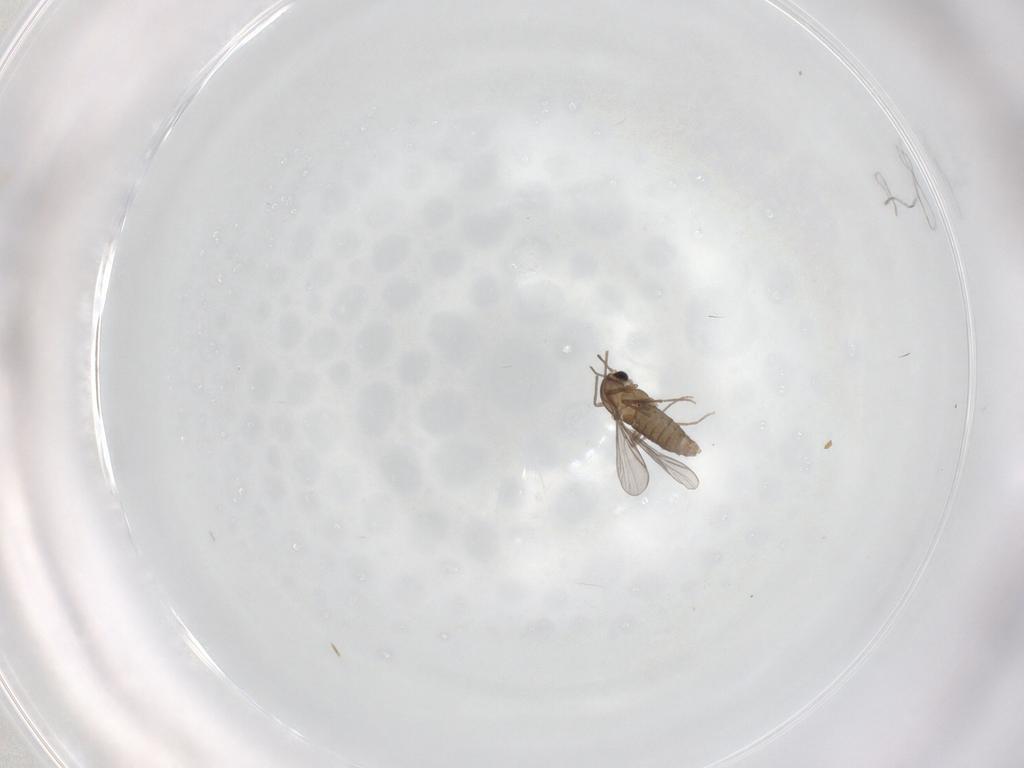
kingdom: Animalia
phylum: Arthropoda
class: Insecta
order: Diptera
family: Chironomidae
